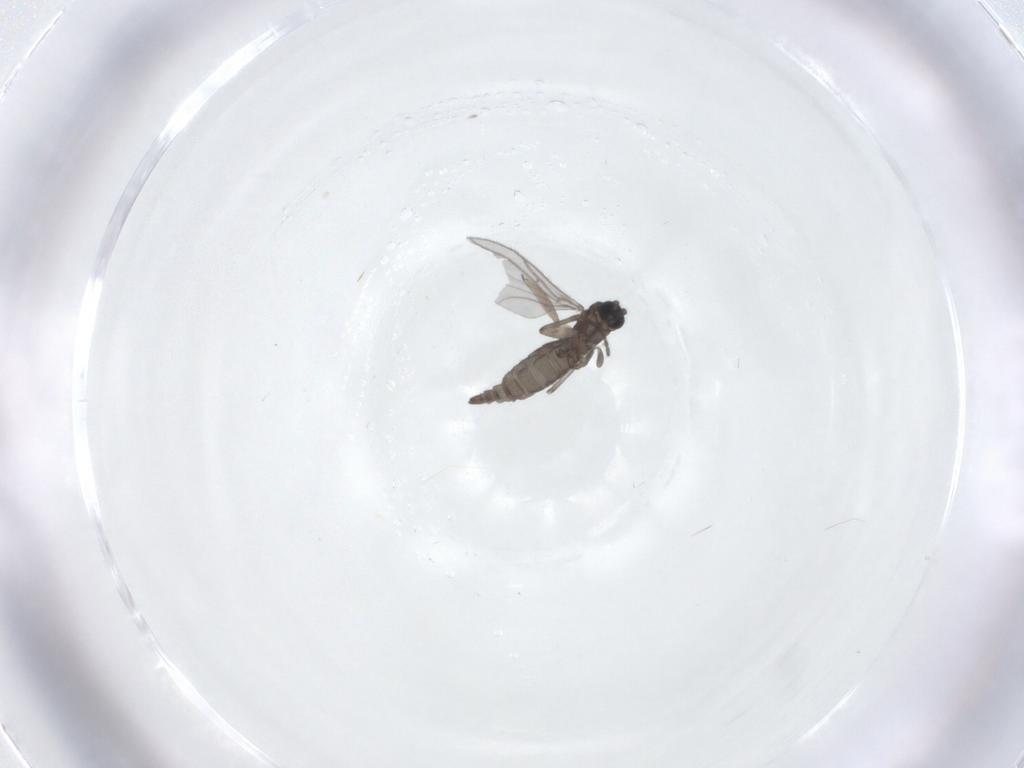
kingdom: Animalia
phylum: Arthropoda
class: Insecta
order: Diptera
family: Sciaridae
